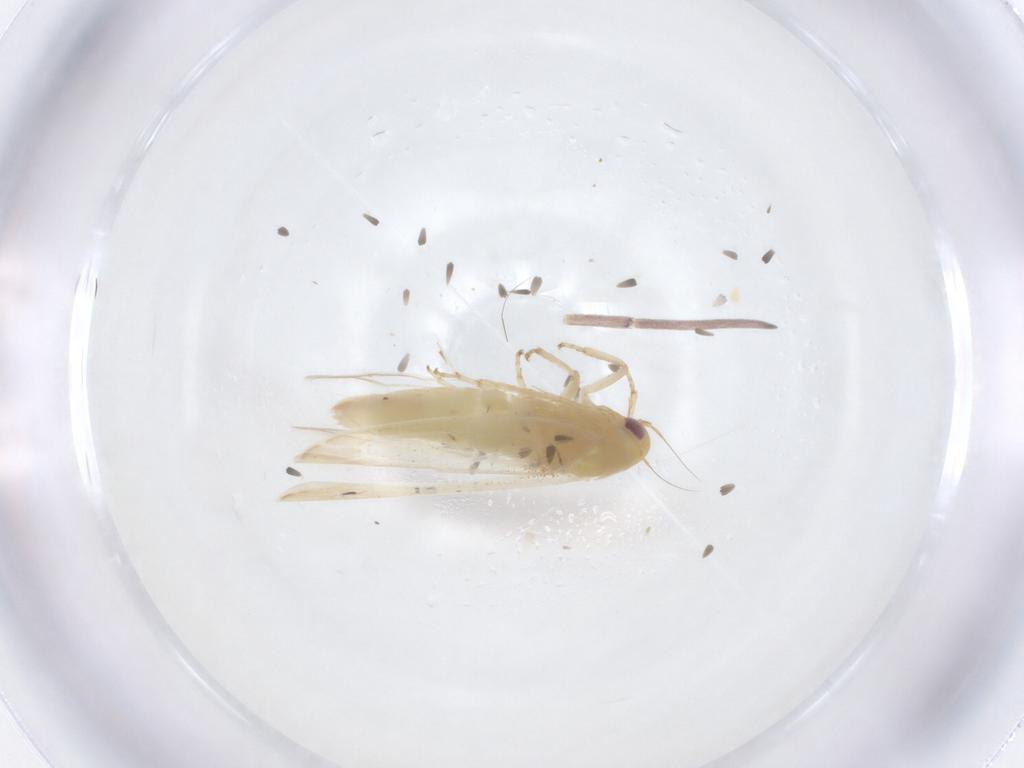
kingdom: Animalia
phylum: Arthropoda
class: Insecta
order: Hemiptera
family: Cicadellidae
